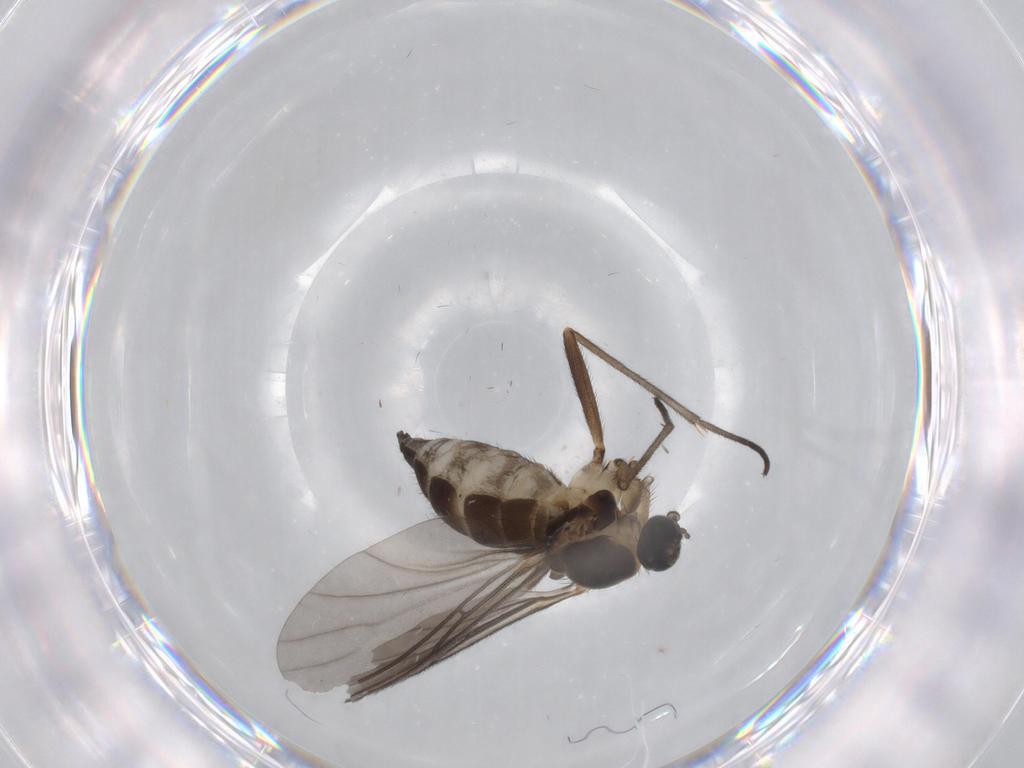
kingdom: Animalia
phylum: Arthropoda
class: Insecta
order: Diptera
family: Sciaridae
